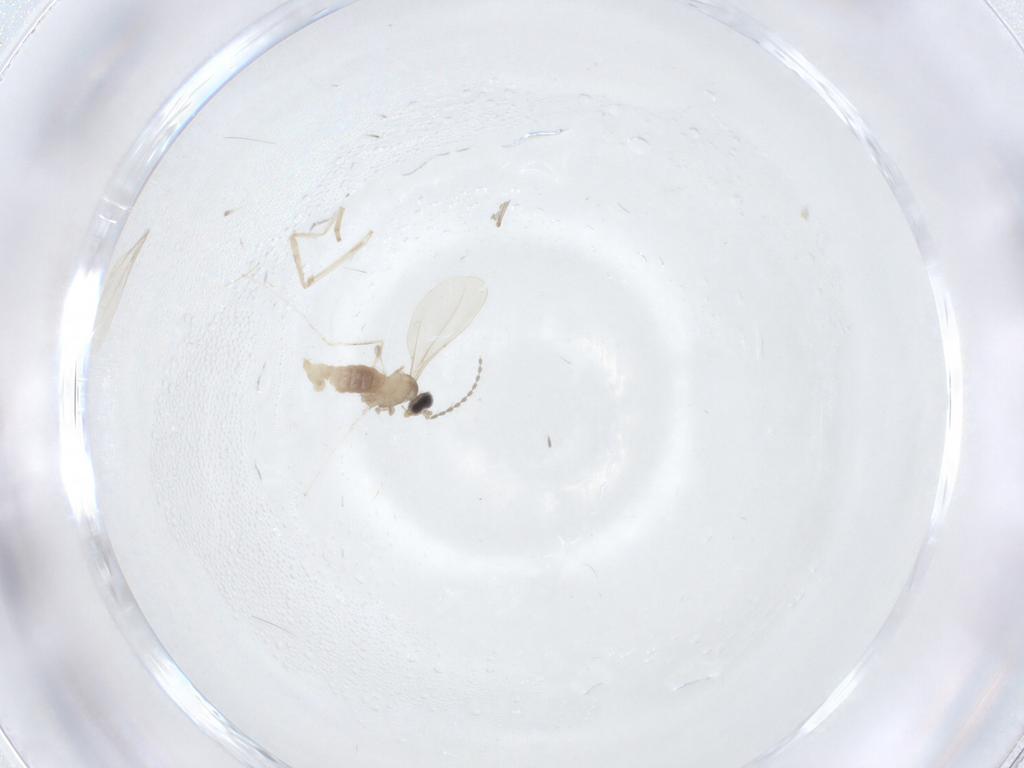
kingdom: Animalia
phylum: Arthropoda
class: Insecta
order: Diptera
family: Cecidomyiidae
